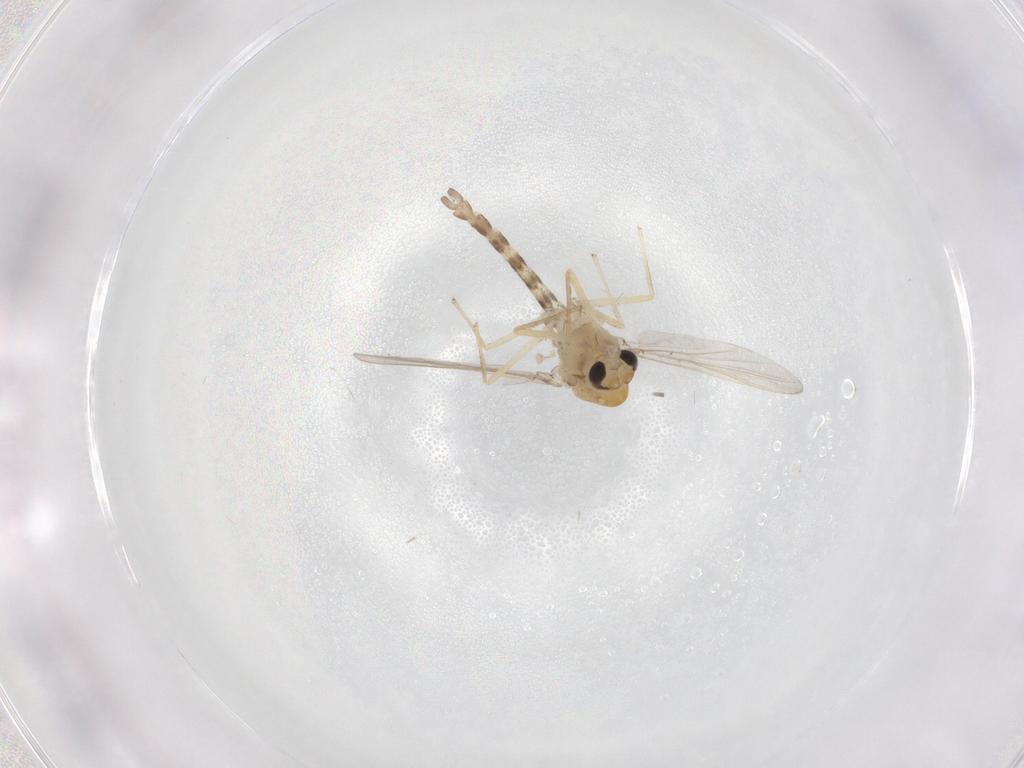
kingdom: Animalia
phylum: Arthropoda
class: Insecta
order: Diptera
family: Chironomidae
